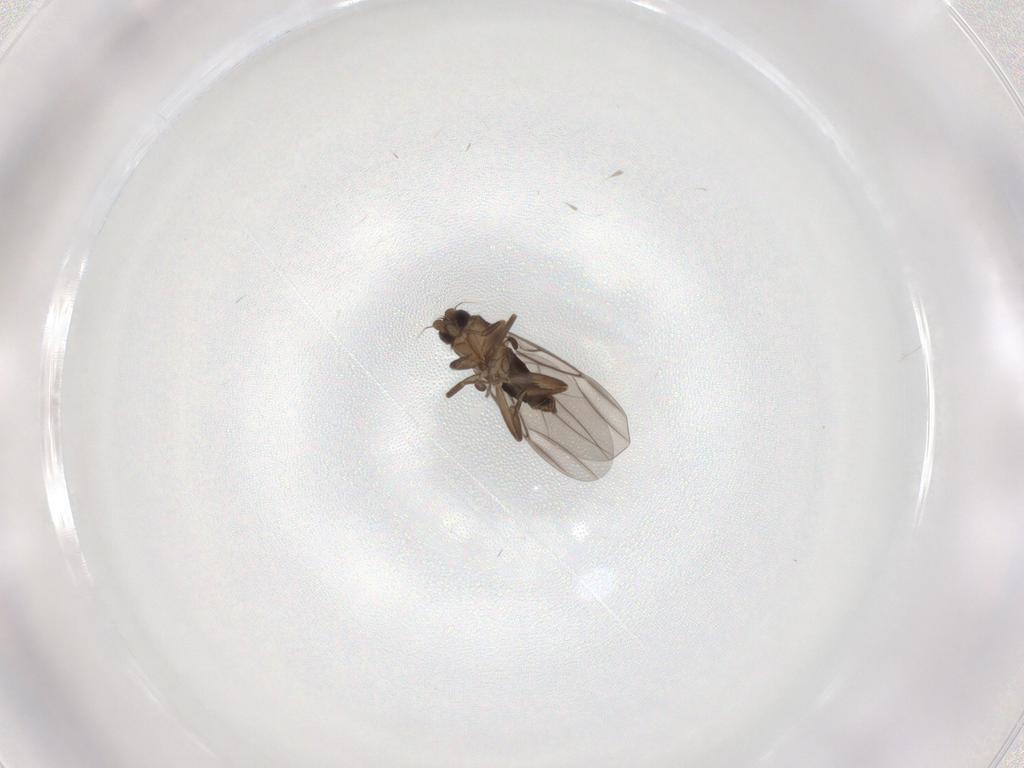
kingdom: Animalia
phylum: Arthropoda
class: Insecta
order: Diptera
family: Phoridae
